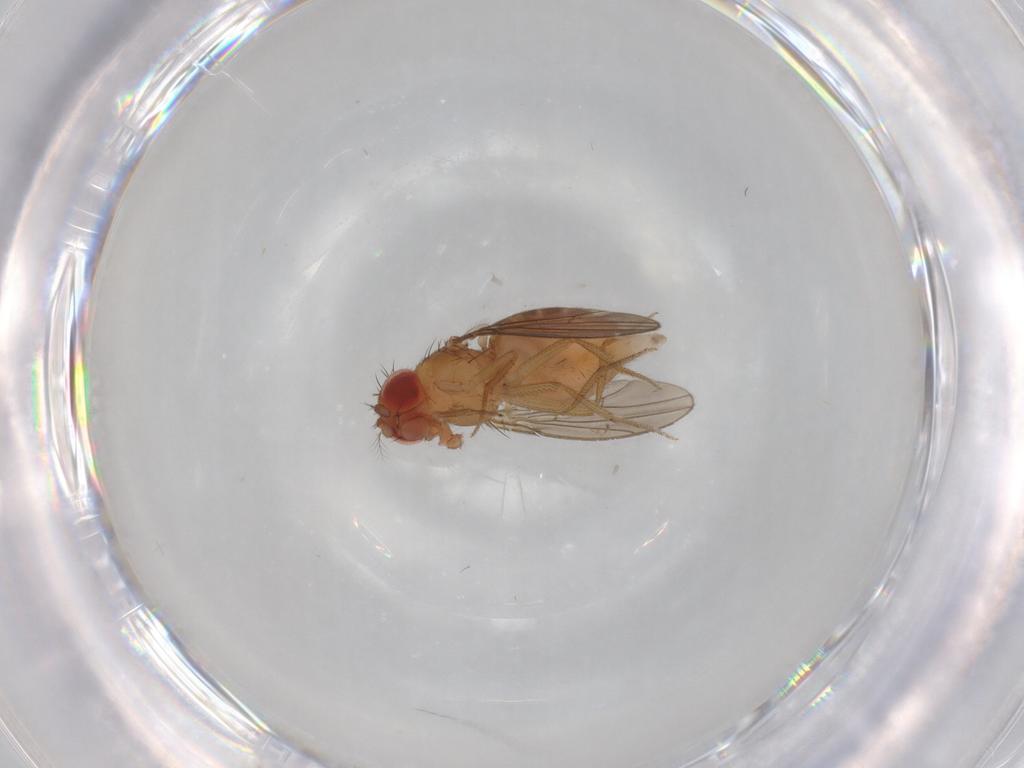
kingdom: Animalia
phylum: Arthropoda
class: Insecta
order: Diptera
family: Drosophilidae
